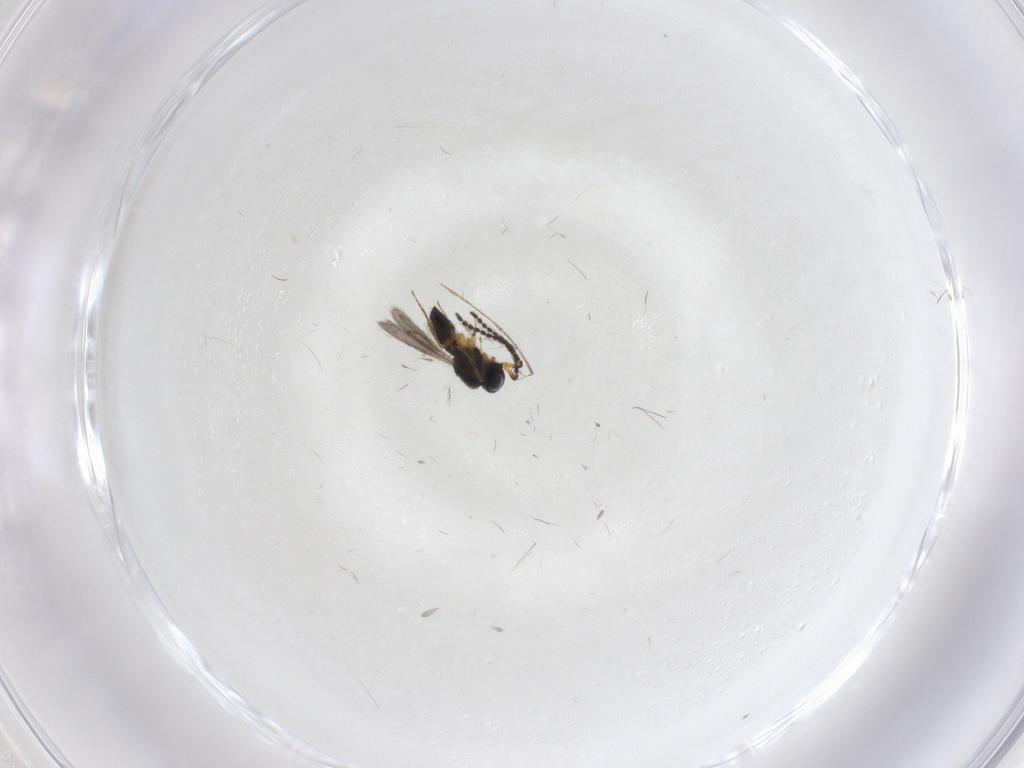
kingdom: Animalia
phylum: Arthropoda
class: Insecta
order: Hymenoptera
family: Scelionidae
